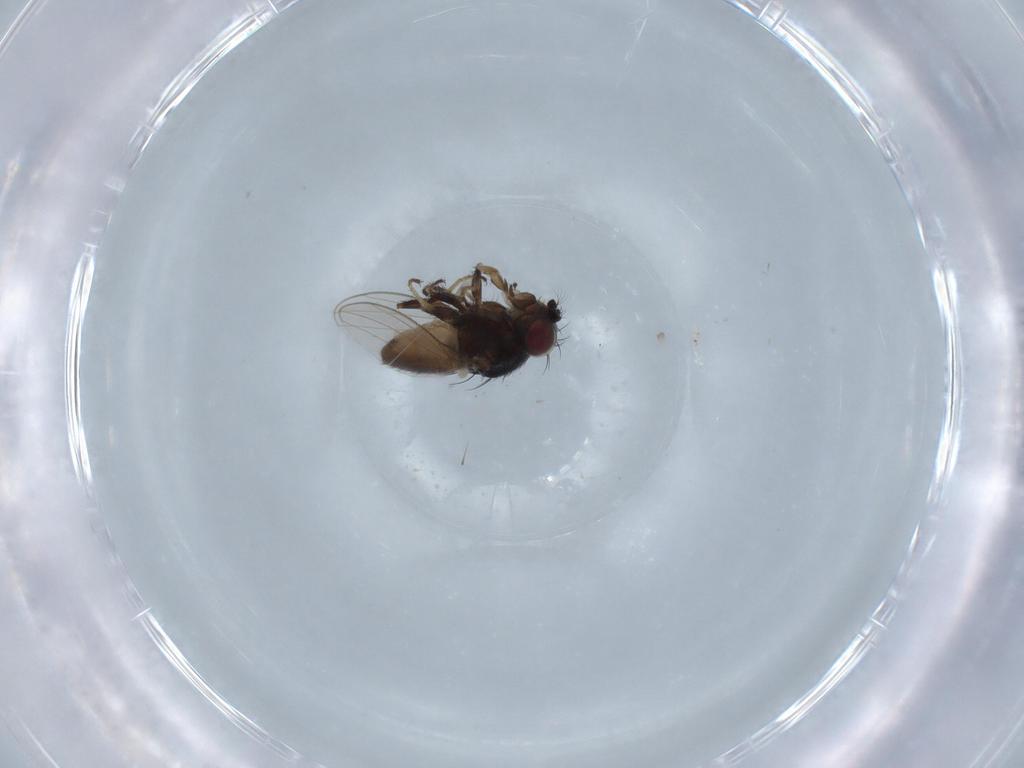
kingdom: Animalia
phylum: Arthropoda
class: Insecta
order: Diptera
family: Ephydridae
